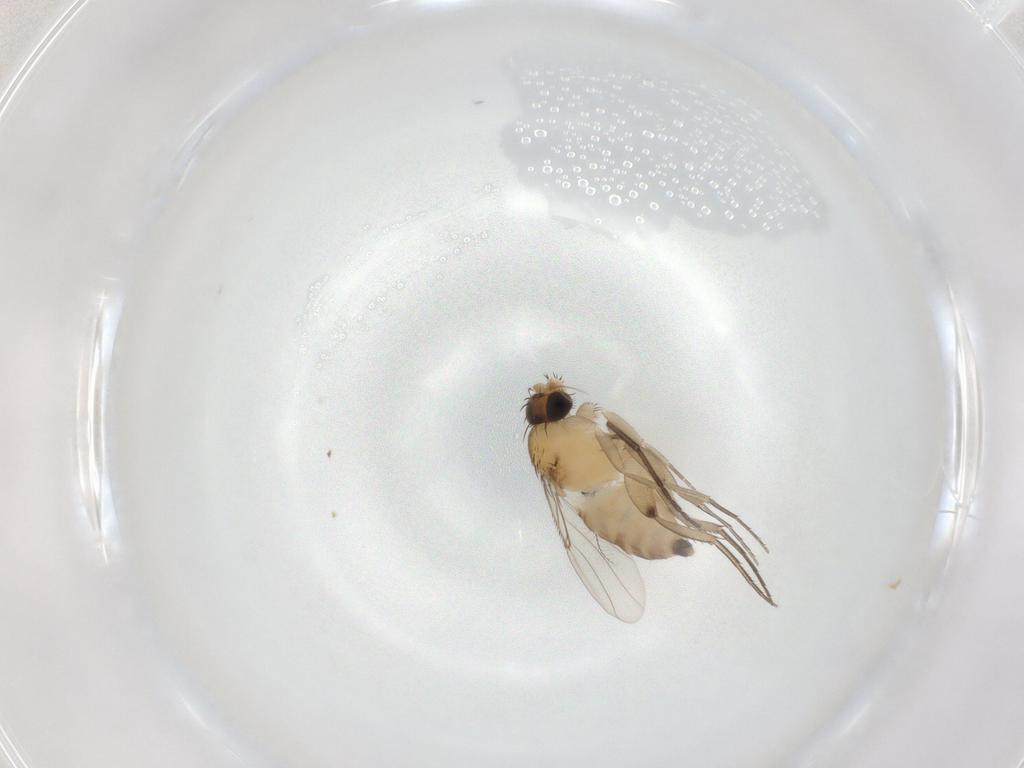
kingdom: Animalia
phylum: Arthropoda
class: Insecta
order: Diptera
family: Phoridae
